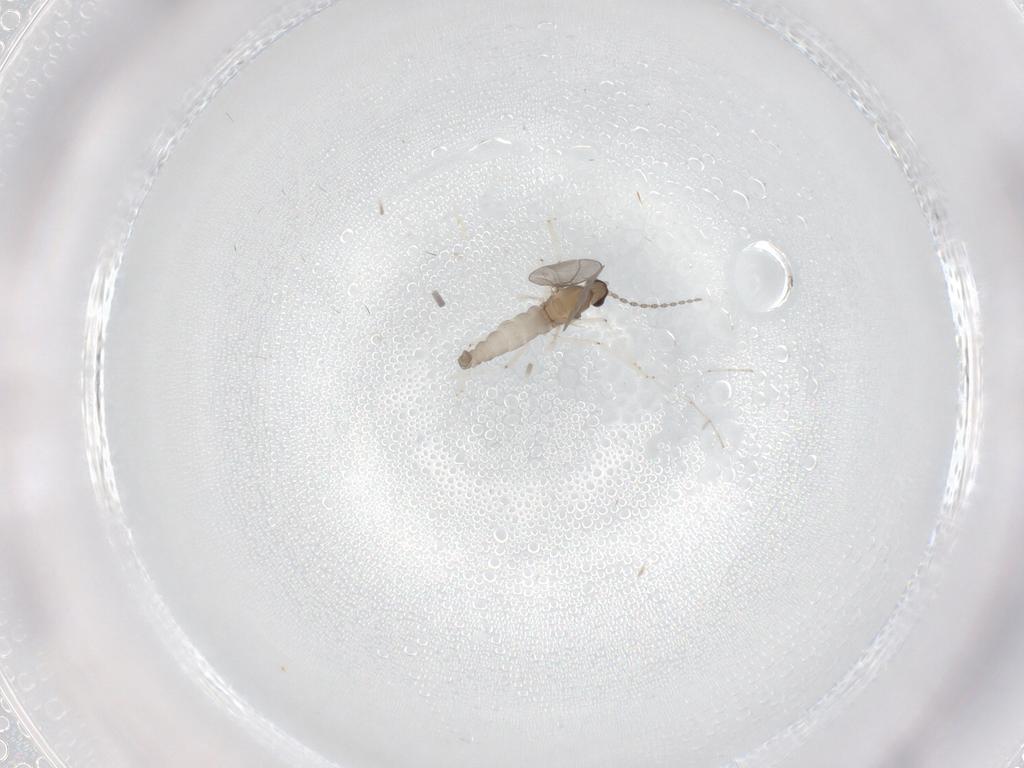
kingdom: Animalia
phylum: Arthropoda
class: Insecta
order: Diptera
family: Cecidomyiidae
